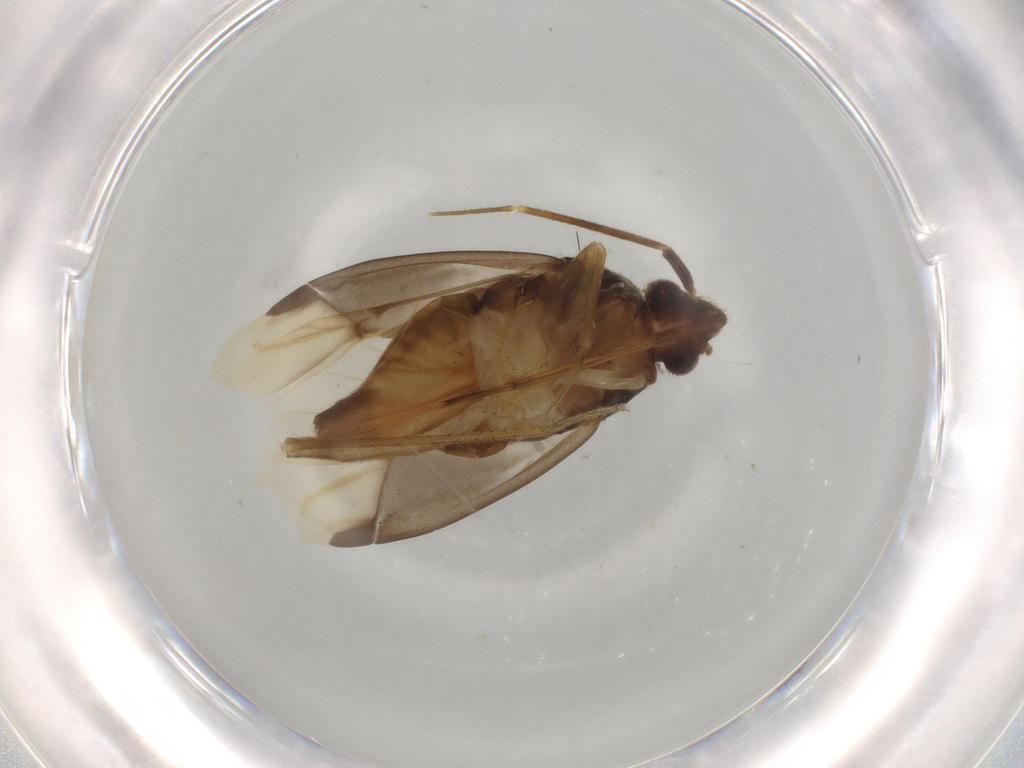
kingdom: Animalia
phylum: Arthropoda
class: Insecta
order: Hemiptera
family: Miridae
